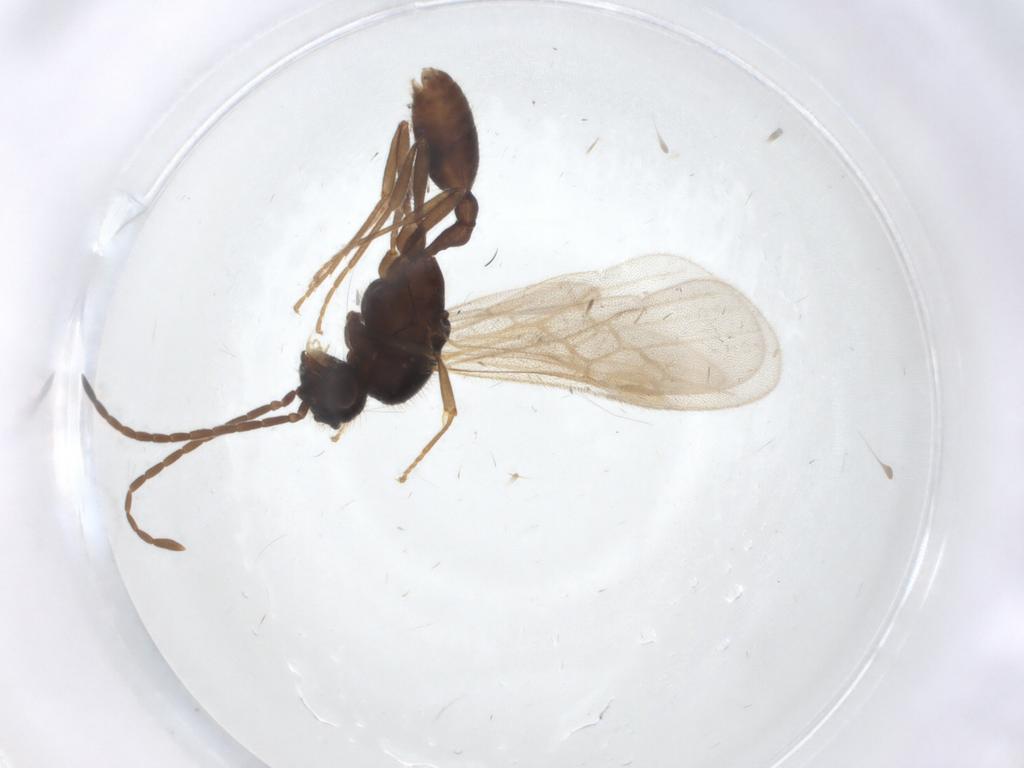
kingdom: Animalia
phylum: Arthropoda
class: Insecta
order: Hymenoptera
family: Formicidae
